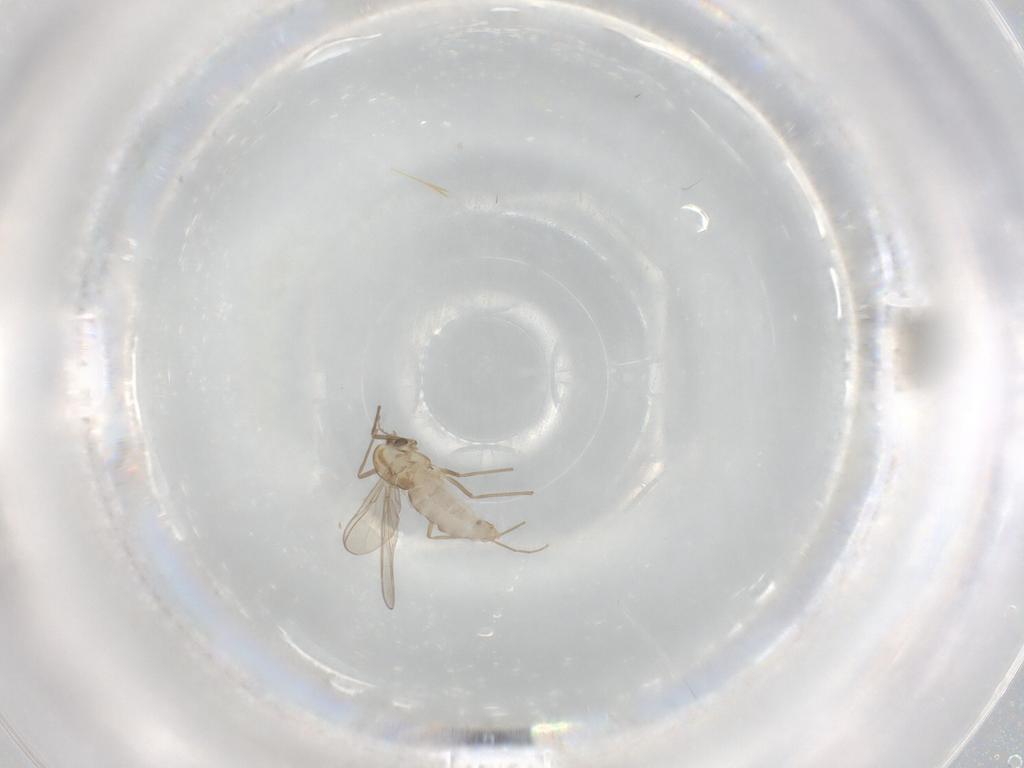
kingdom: Animalia
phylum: Arthropoda
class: Insecta
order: Diptera
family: Chironomidae
